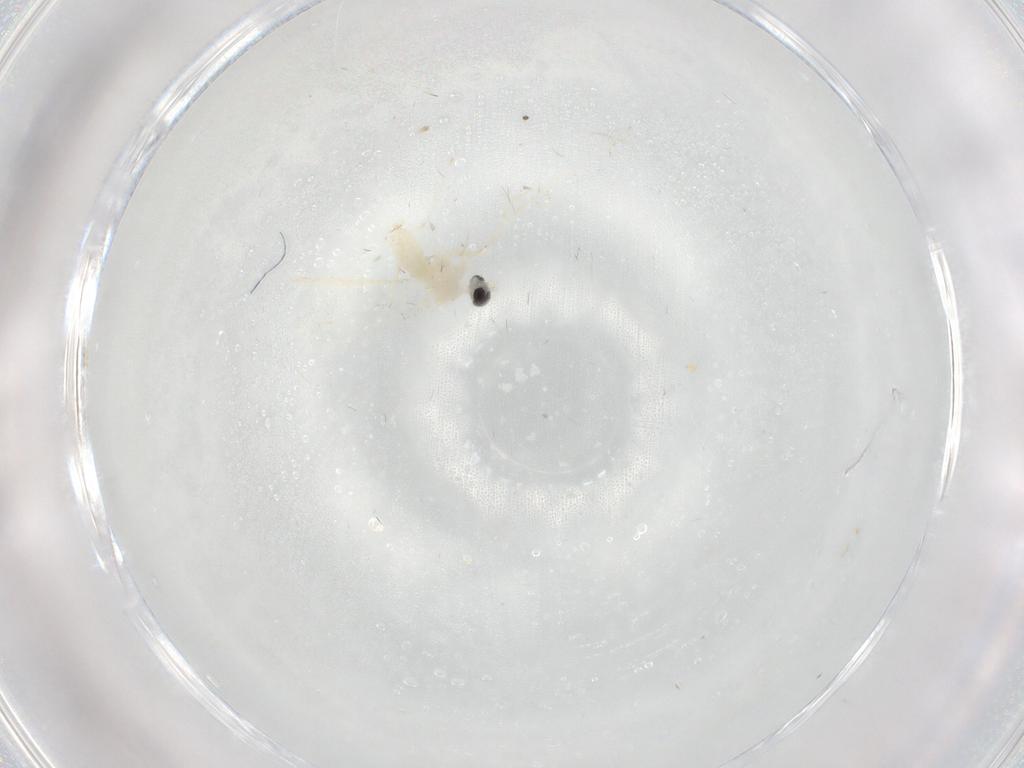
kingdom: Animalia
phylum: Arthropoda
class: Insecta
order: Diptera
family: Cecidomyiidae
